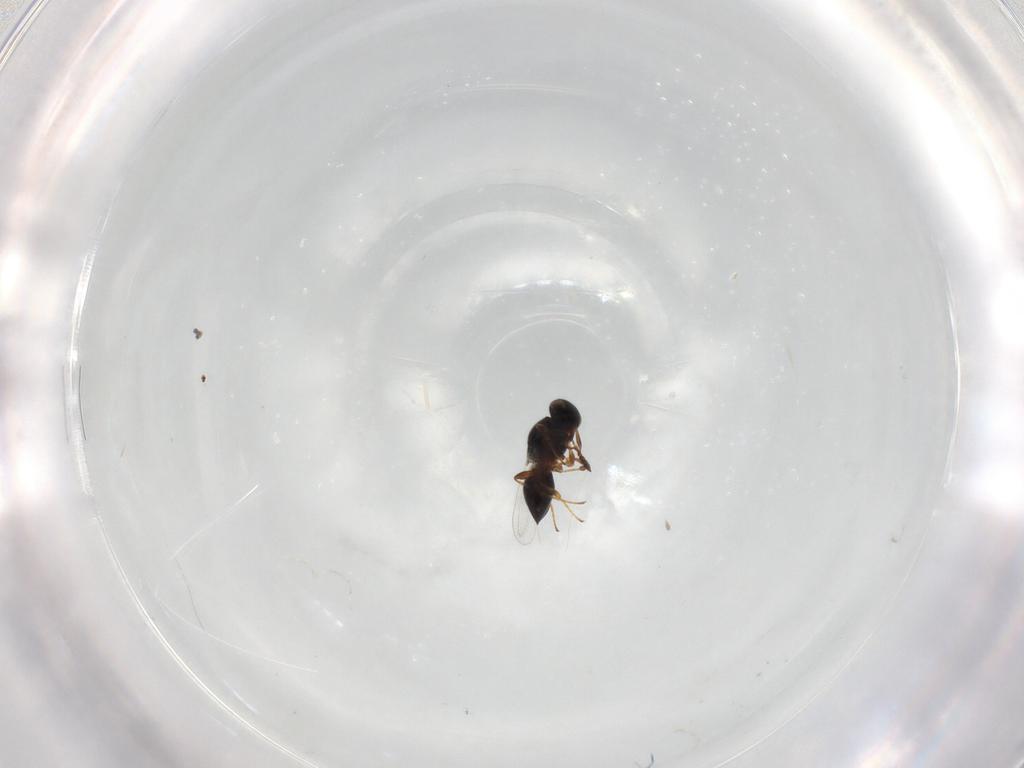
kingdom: Animalia
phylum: Arthropoda
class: Insecta
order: Hymenoptera
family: Platygastridae
